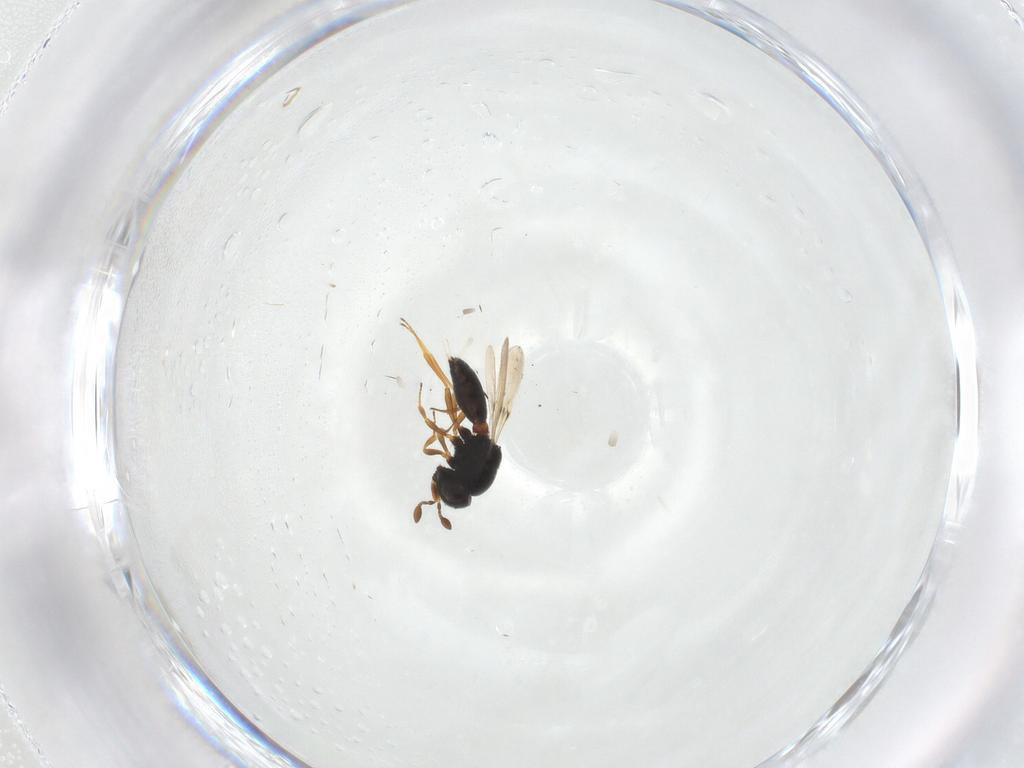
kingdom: Animalia
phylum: Arthropoda
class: Insecta
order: Hymenoptera
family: Scelionidae
